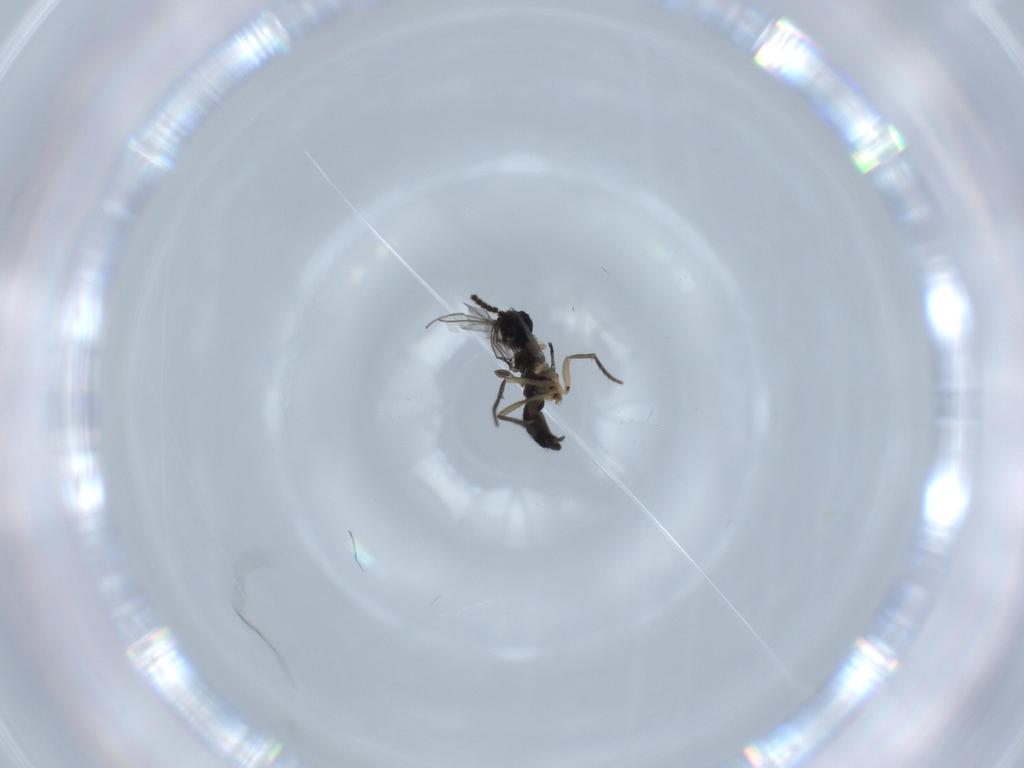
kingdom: Animalia
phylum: Arthropoda
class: Insecta
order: Diptera
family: Sciaridae
